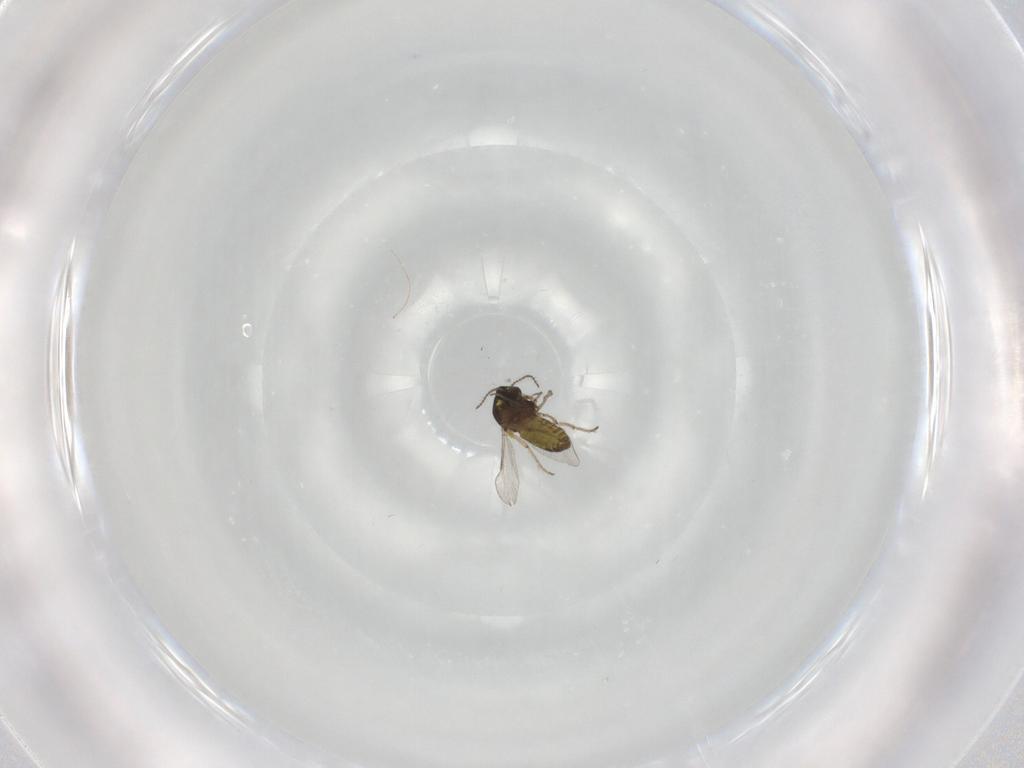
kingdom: Animalia
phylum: Arthropoda
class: Insecta
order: Diptera
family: Ceratopogonidae
